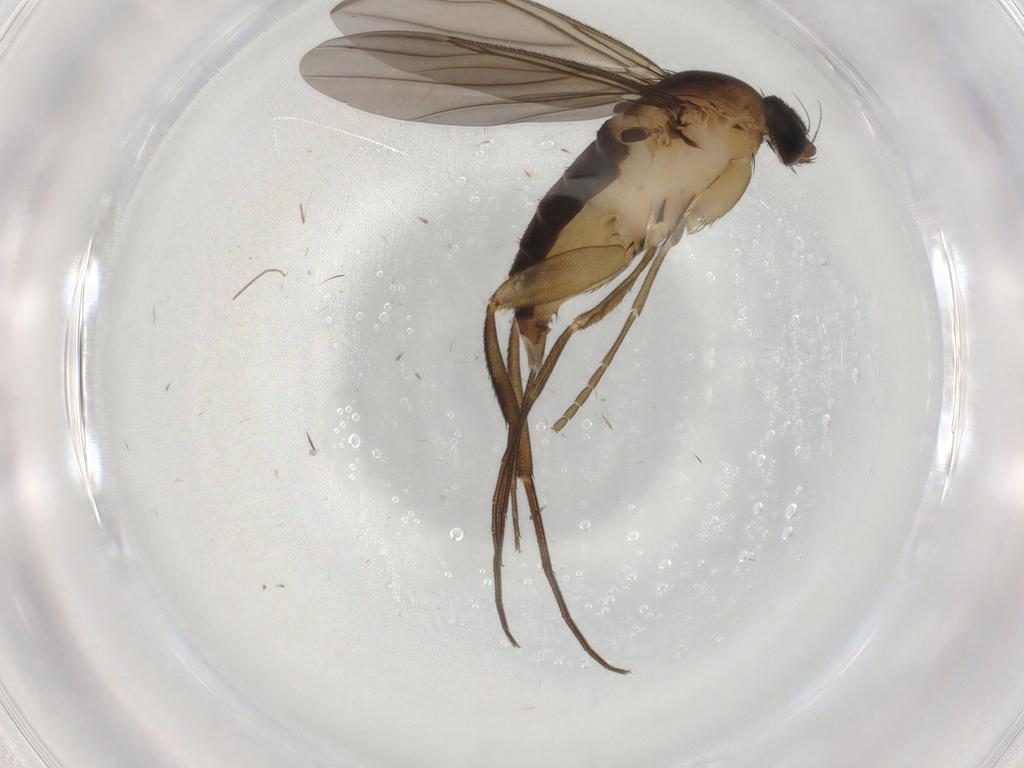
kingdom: Animalia
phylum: Arthropoda
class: Insecta
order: Diptera
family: Phoridae
